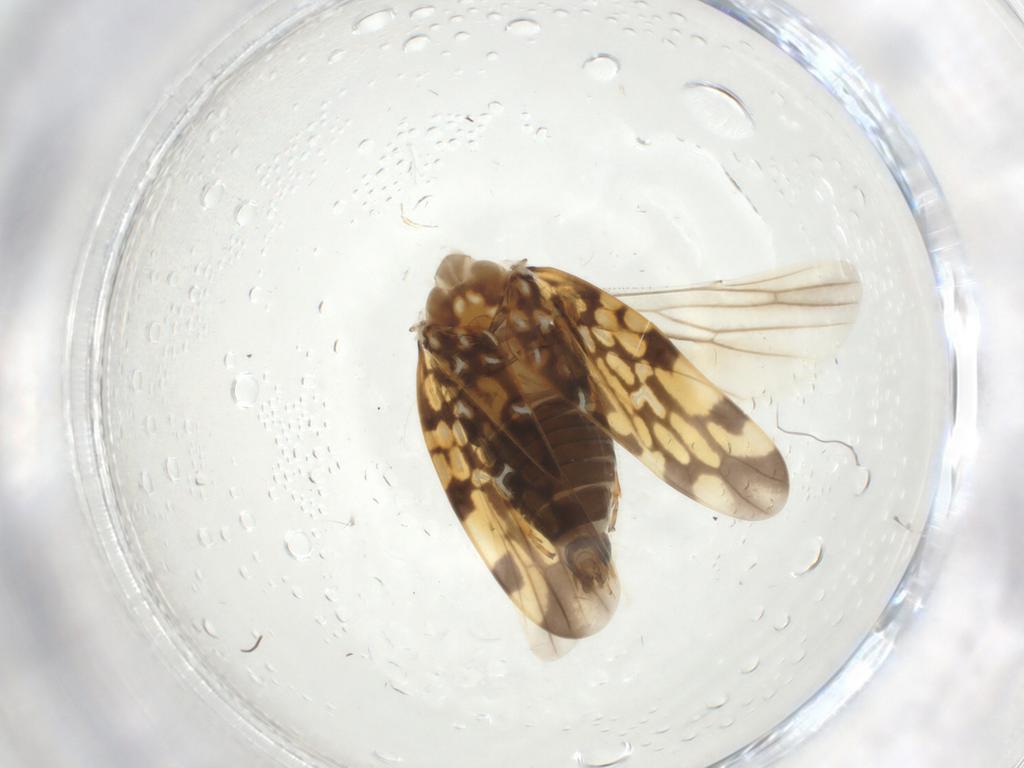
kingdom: Animalia
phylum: Arthropoda
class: Insecta
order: Hemiptera
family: Cicadellidae
